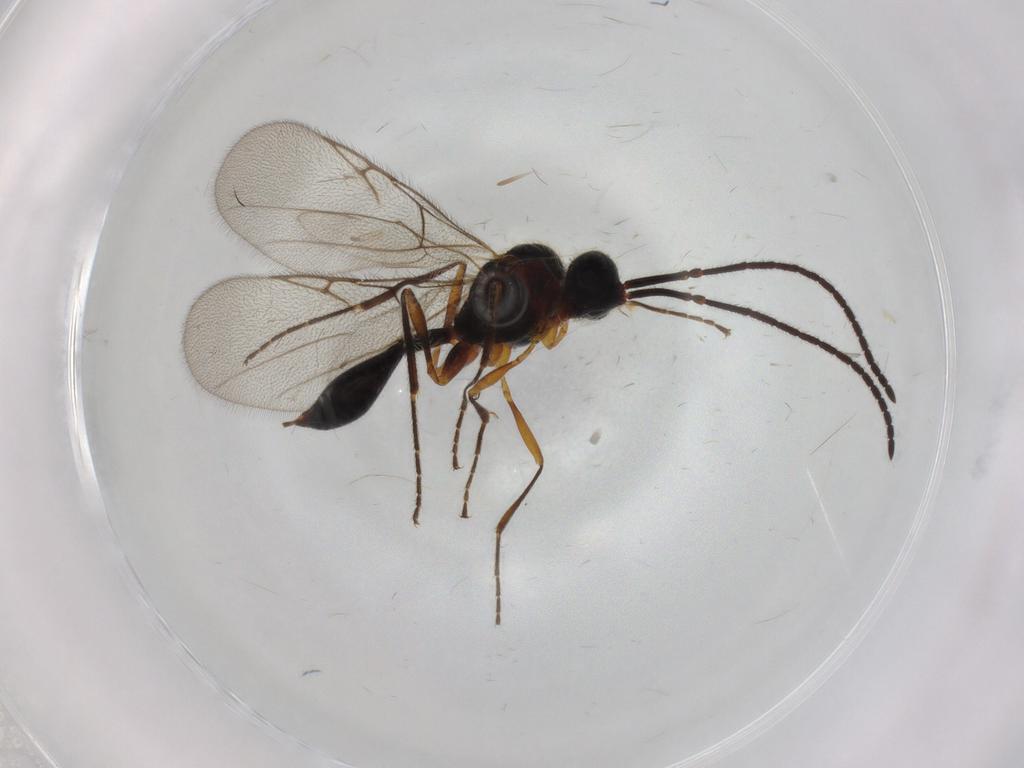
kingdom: Animalia
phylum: Arthropoda
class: Insecta
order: Hymenoptera
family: Diapriidae
